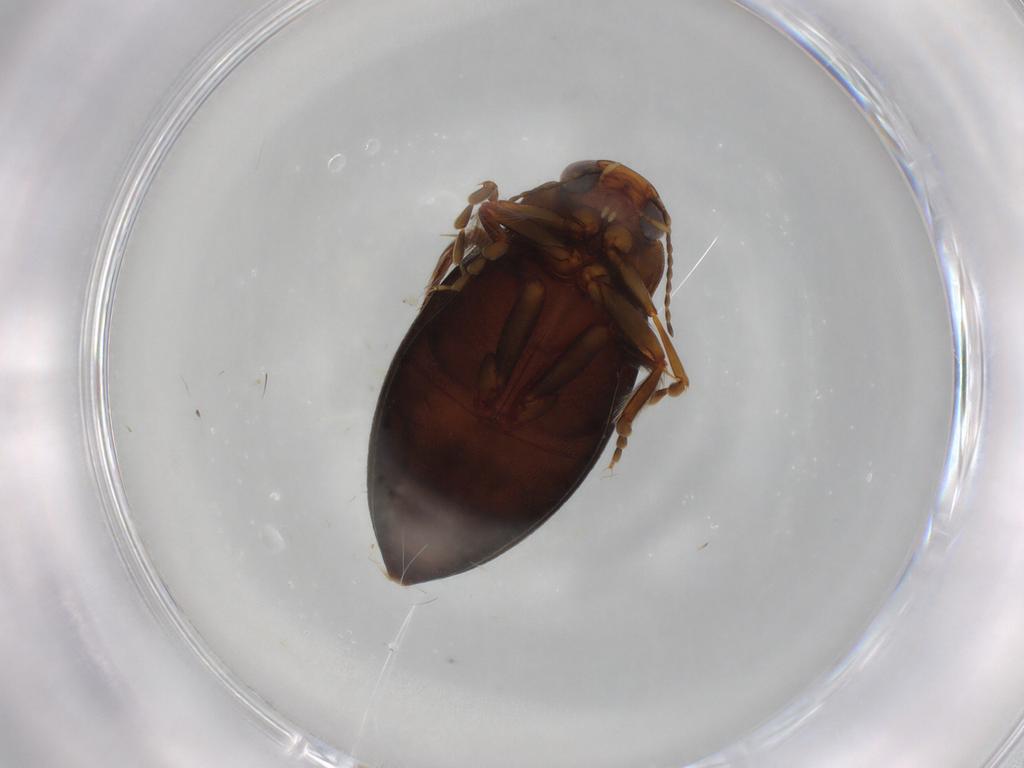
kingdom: Animalia
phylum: Arthropoda
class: Insecta
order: Coleoptera
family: Dytiscidae
